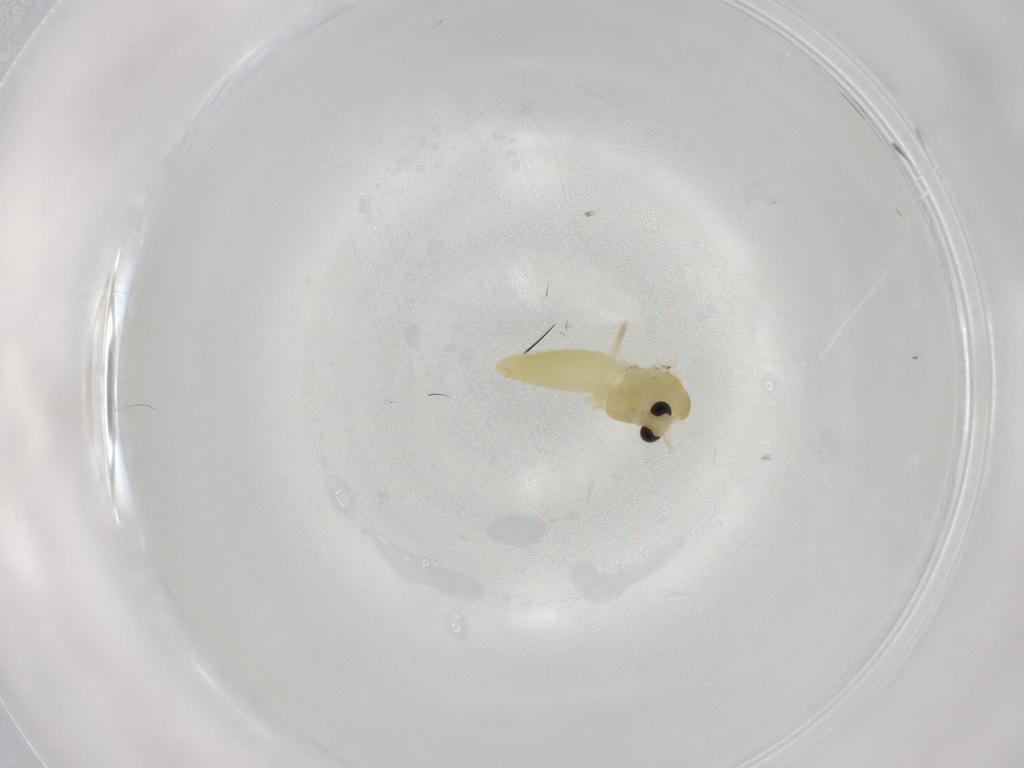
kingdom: Animalia
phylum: Arthropoda
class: Insecta
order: Diptera
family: Chironomidae
